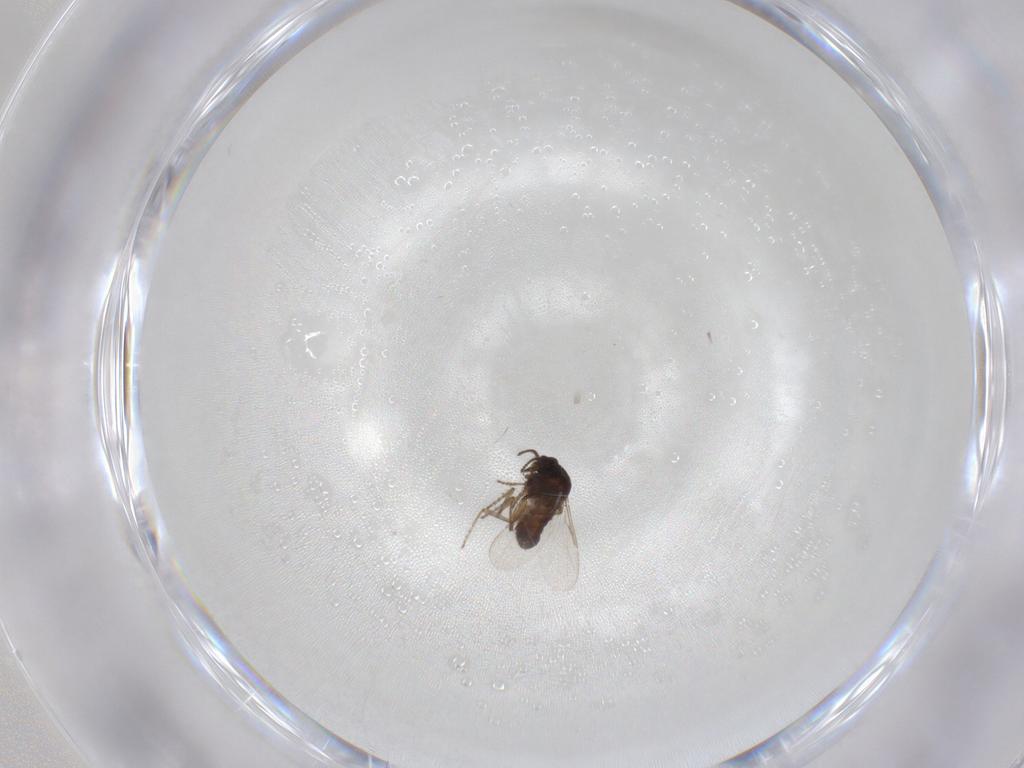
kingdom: Animalia
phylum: Arthropoda
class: Insecta
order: Diptera
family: Ceratopogonidae
